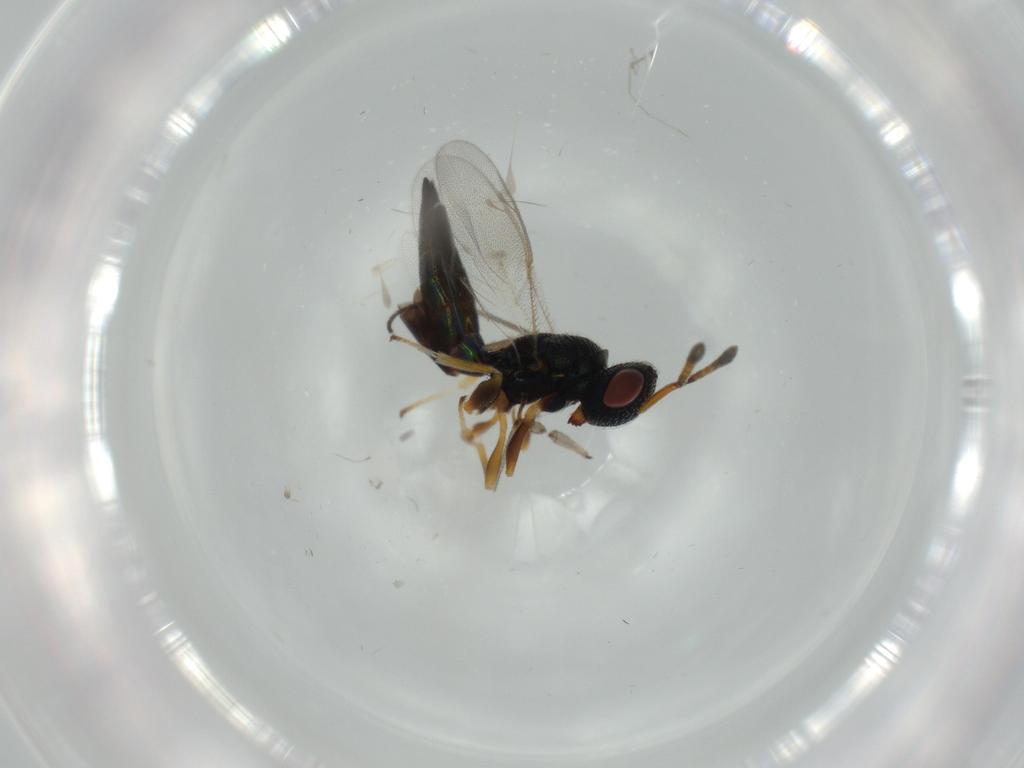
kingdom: Animalia
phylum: Arthropoda
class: Insecta
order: Hymenoptera
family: Pteromalidae
